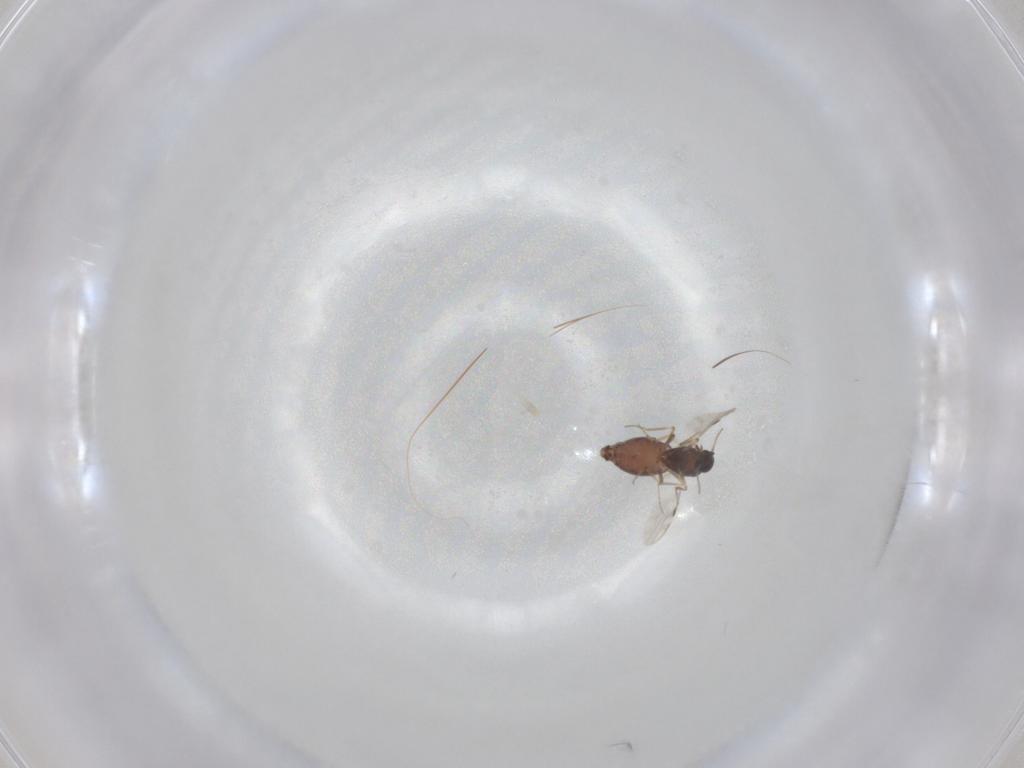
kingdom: Animalia
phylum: Arthropoda
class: Insecta
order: Diptera
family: Periscelididae
